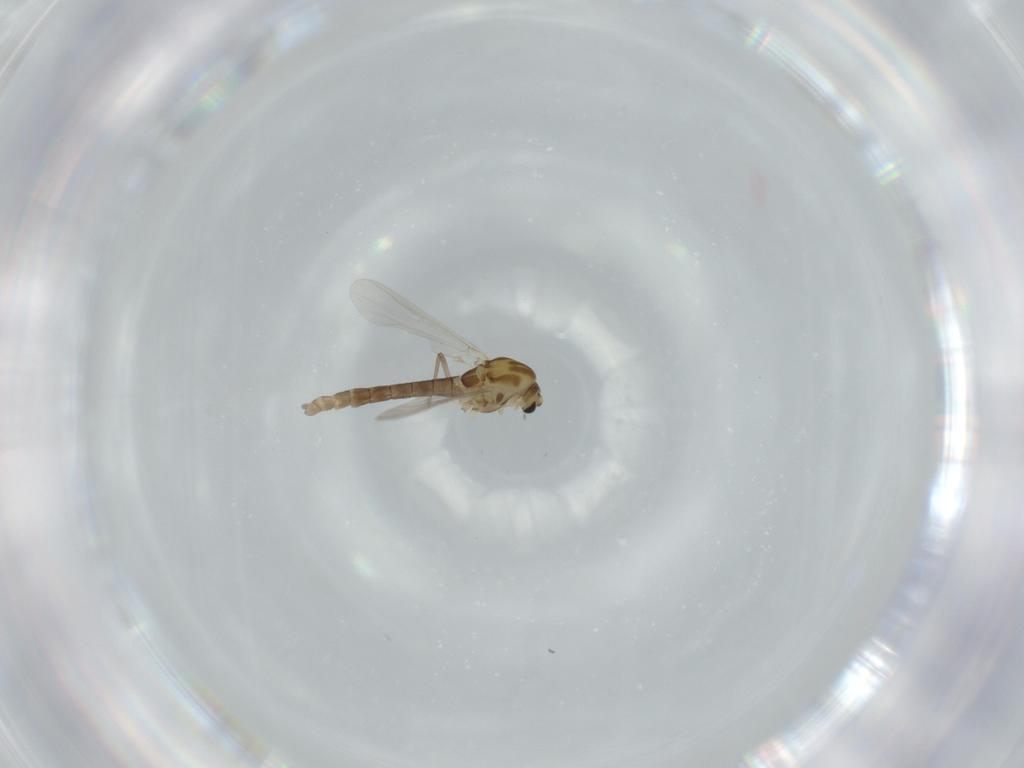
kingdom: Animalia
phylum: Arthropoda
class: Insecta
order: Diptera
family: Chironomidae
